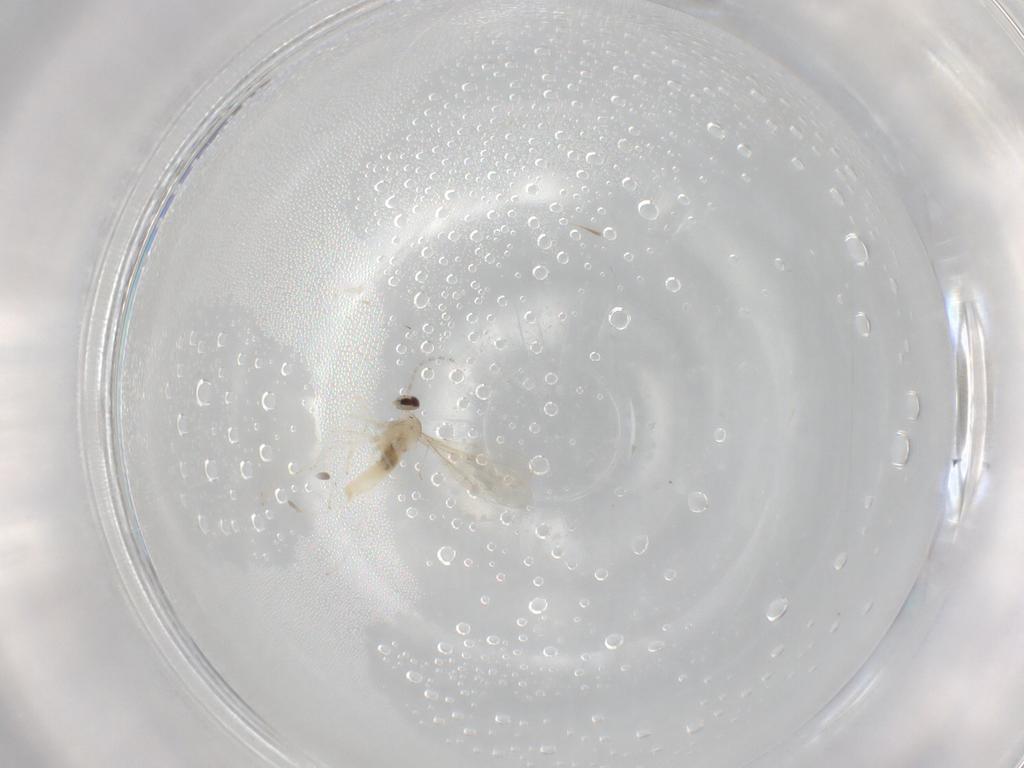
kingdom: Animalia
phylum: Arthropoda
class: Insecta
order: Diptera
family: Cecidomyiidae
